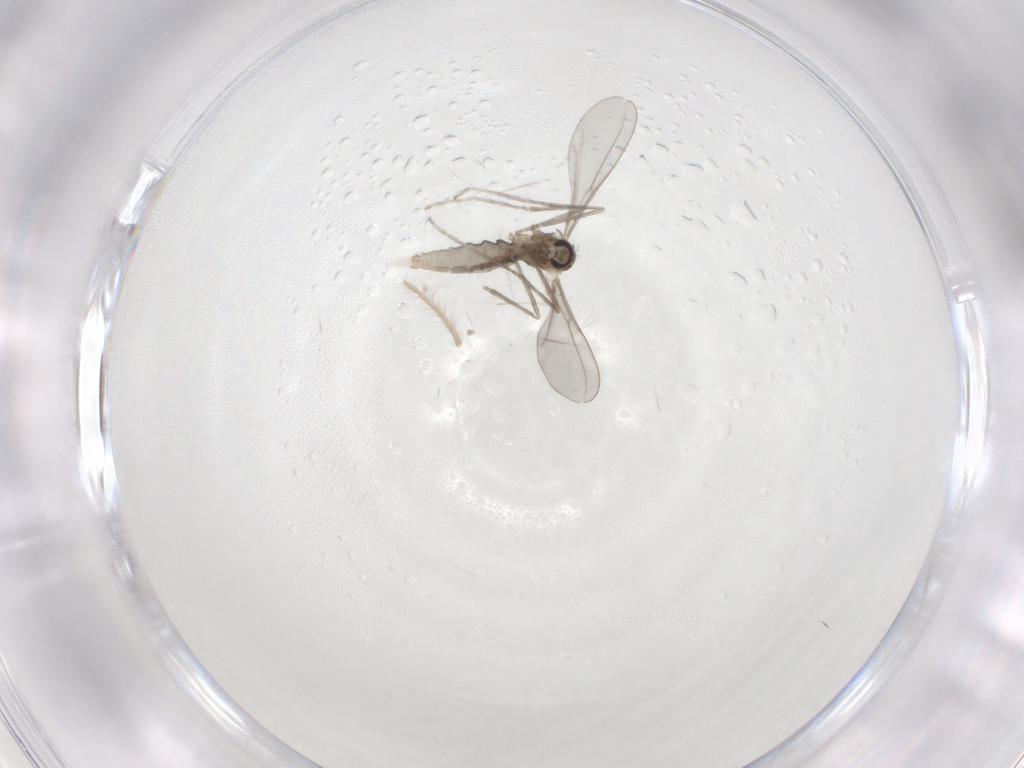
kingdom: Animalia
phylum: Arthropoda
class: Insecta
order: Diptera
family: Cecidomyiidae
